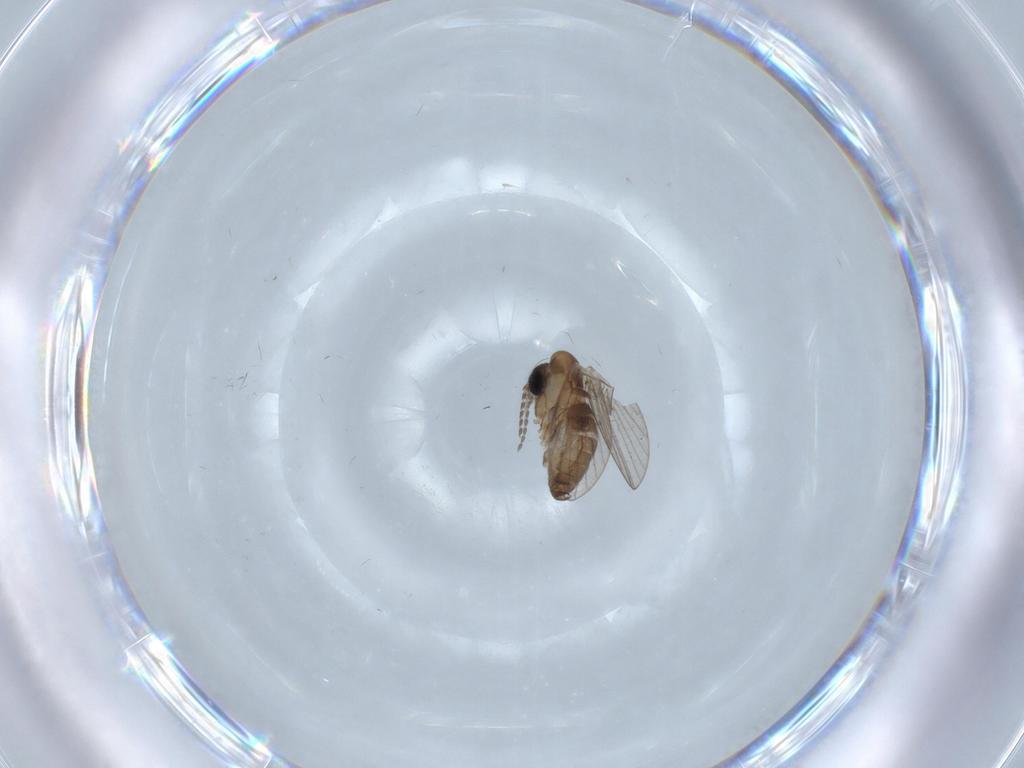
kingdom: Animalia
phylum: Arthropoda
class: Insecta
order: Diptera
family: Psychodidae
